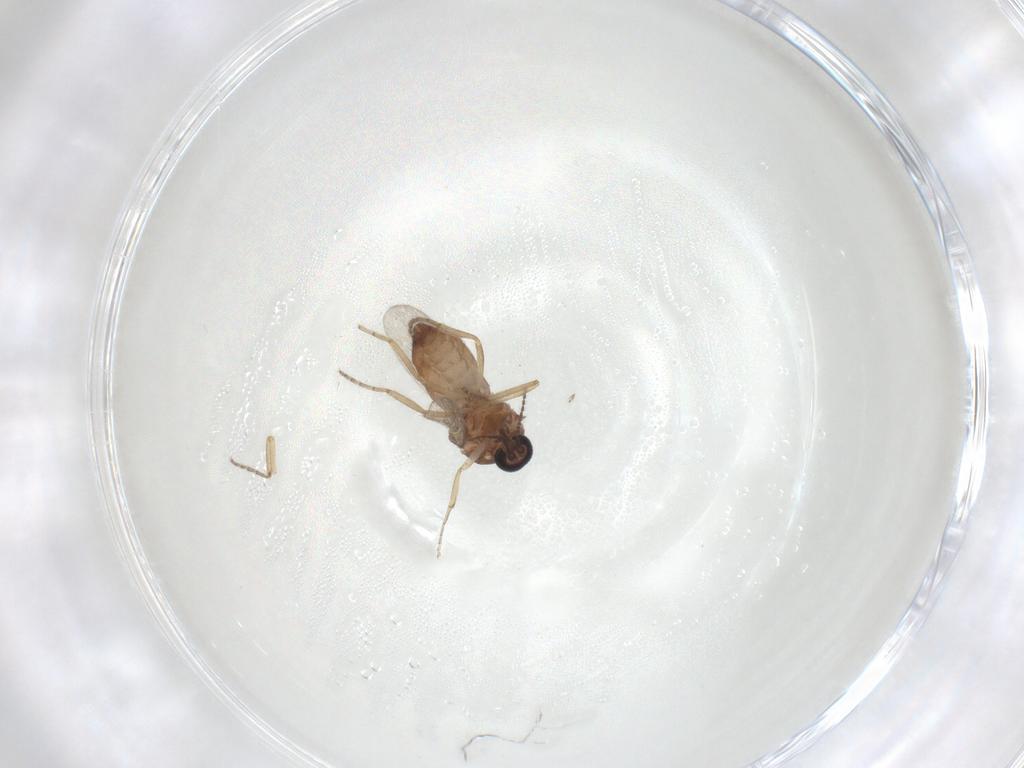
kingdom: Animalia
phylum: Arthropoda
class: Insecta
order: Diptera
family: Ceratopogonidae
